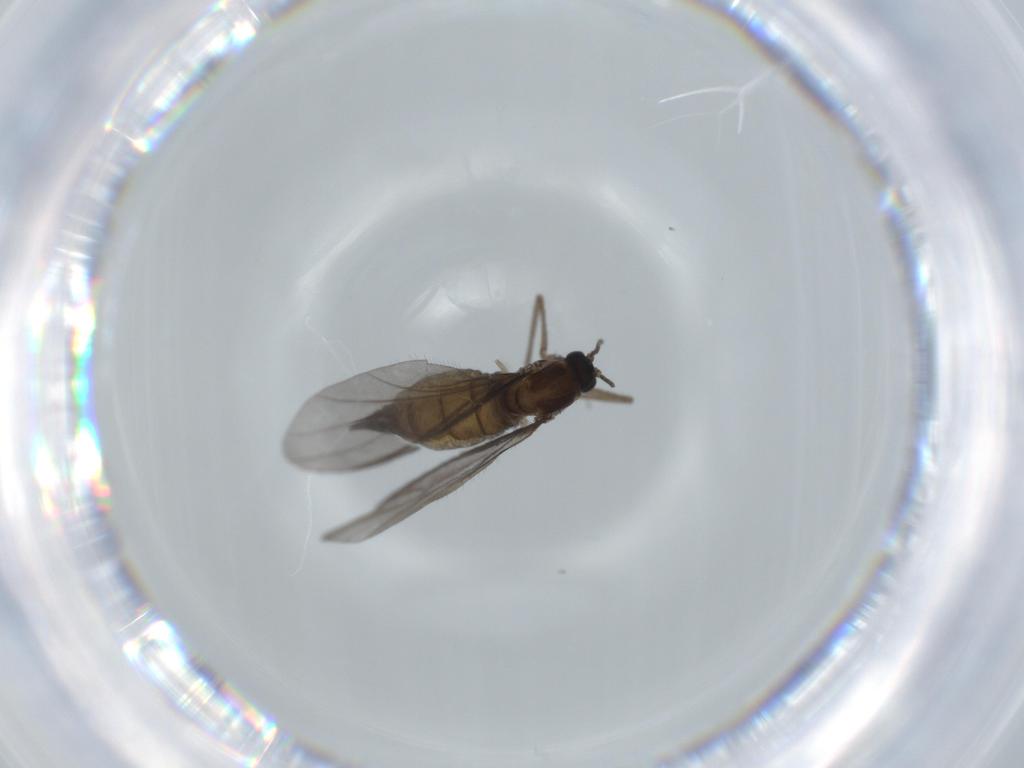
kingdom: Animalia
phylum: Arthropoda
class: Insecta
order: Diptera
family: Sciaridae
